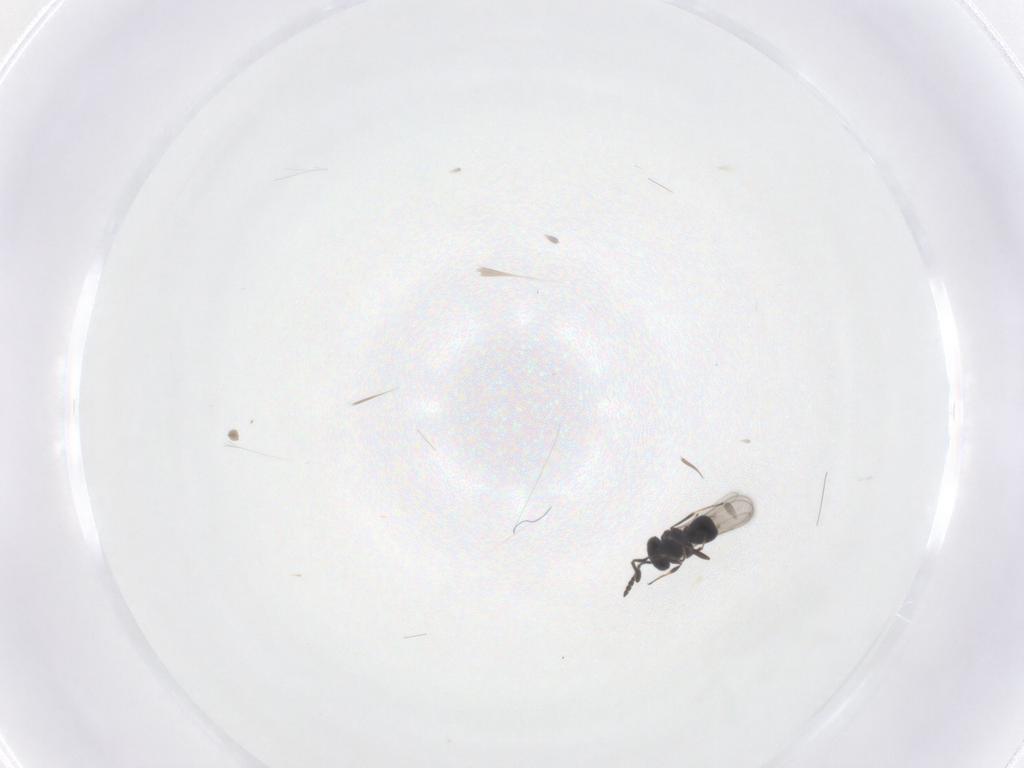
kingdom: Animalia
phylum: Arthropoda
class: Insecta
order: Hymenoptera
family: Scelionidae
